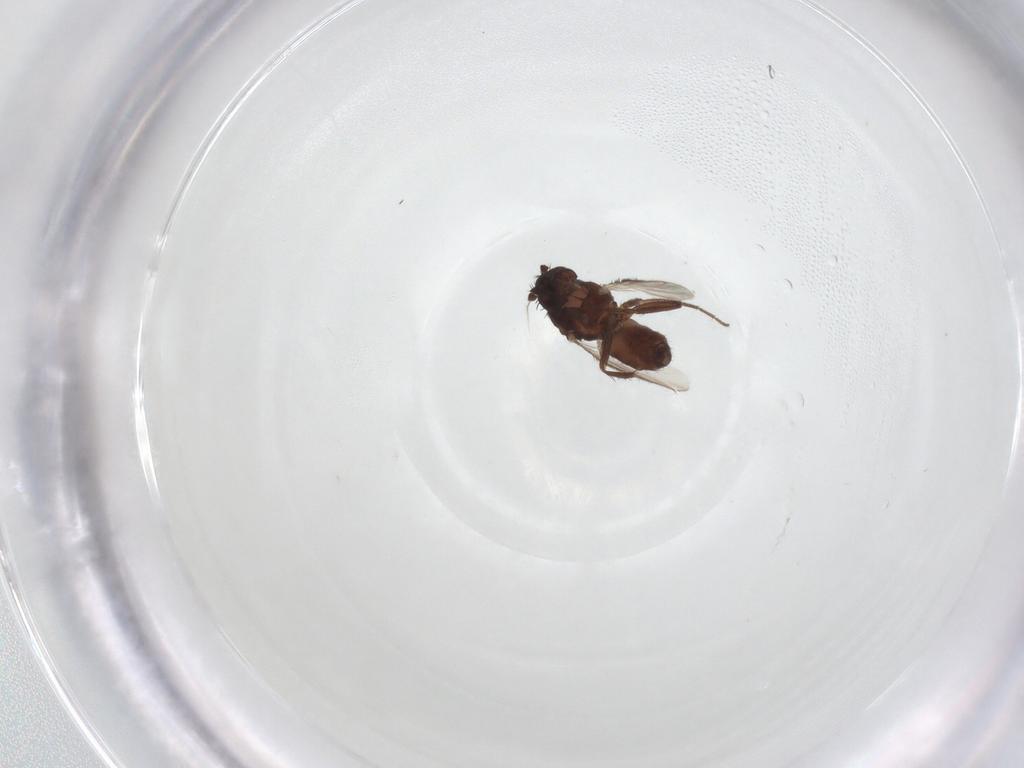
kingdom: Animalia
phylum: Arthropoda
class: Insecta
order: Diptera
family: Sphaeroceridae
